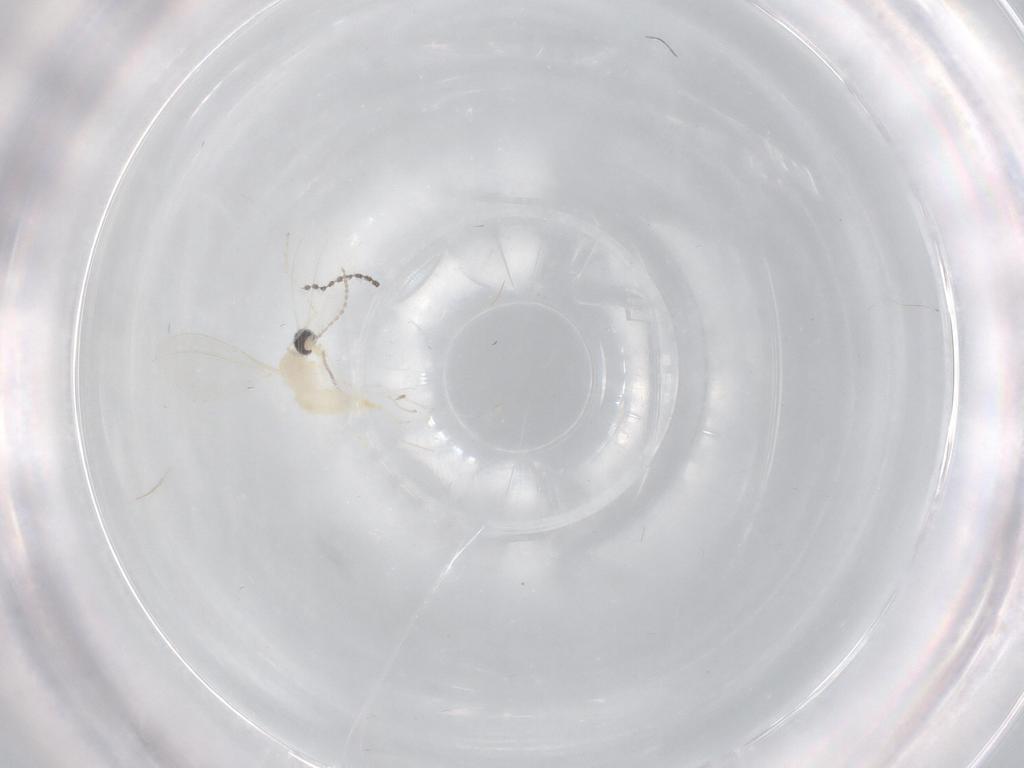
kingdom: Animalia
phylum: Arthropoda
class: Insecta
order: Diptera
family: Cecidomyiidae
